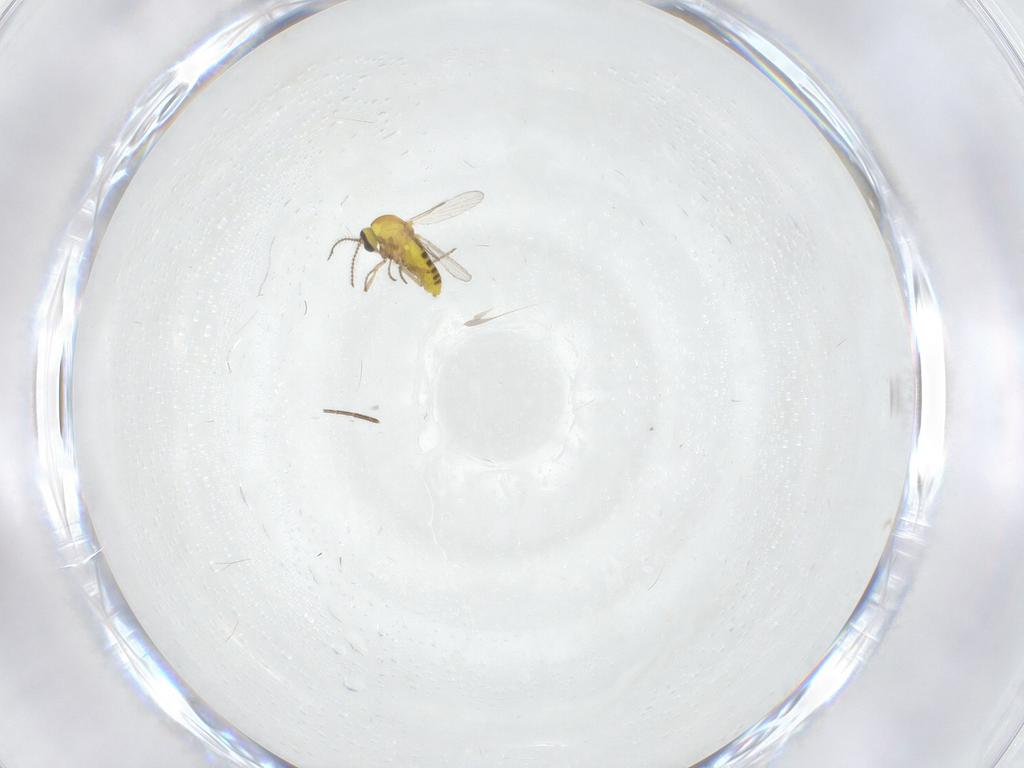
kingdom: Animalia
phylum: Arthropoda
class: Insecta
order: Diptera
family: Ceratopogonidae
